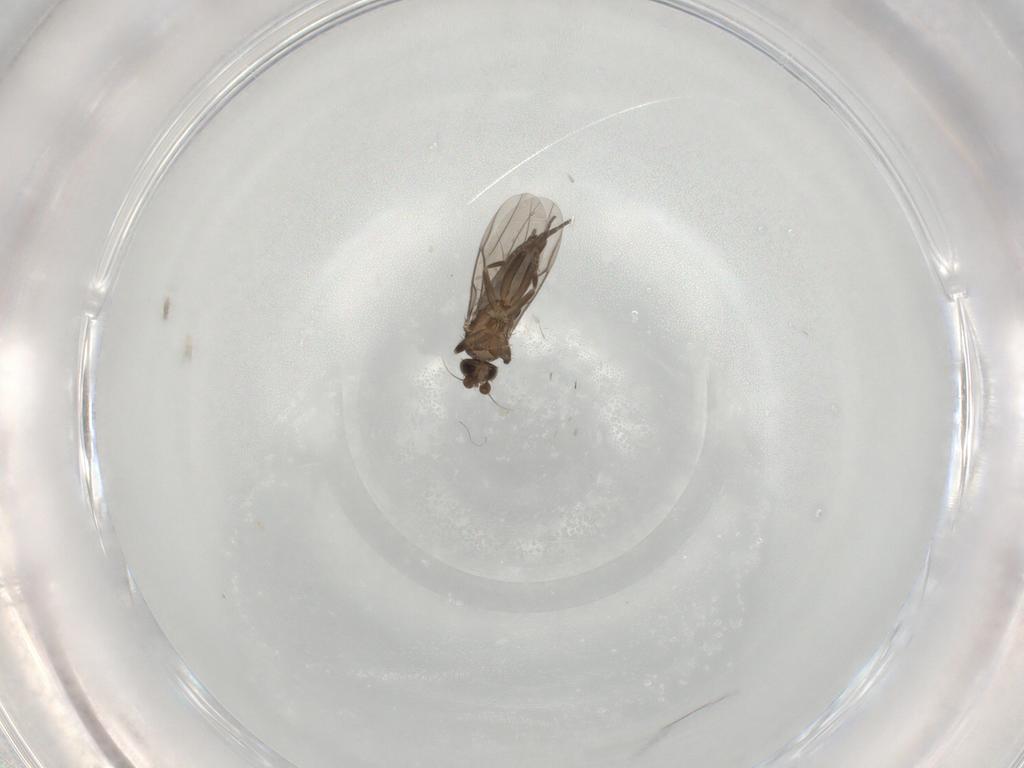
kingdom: Animalia
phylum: Arthropoda
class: Insecta
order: Diptera
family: Phoridae
